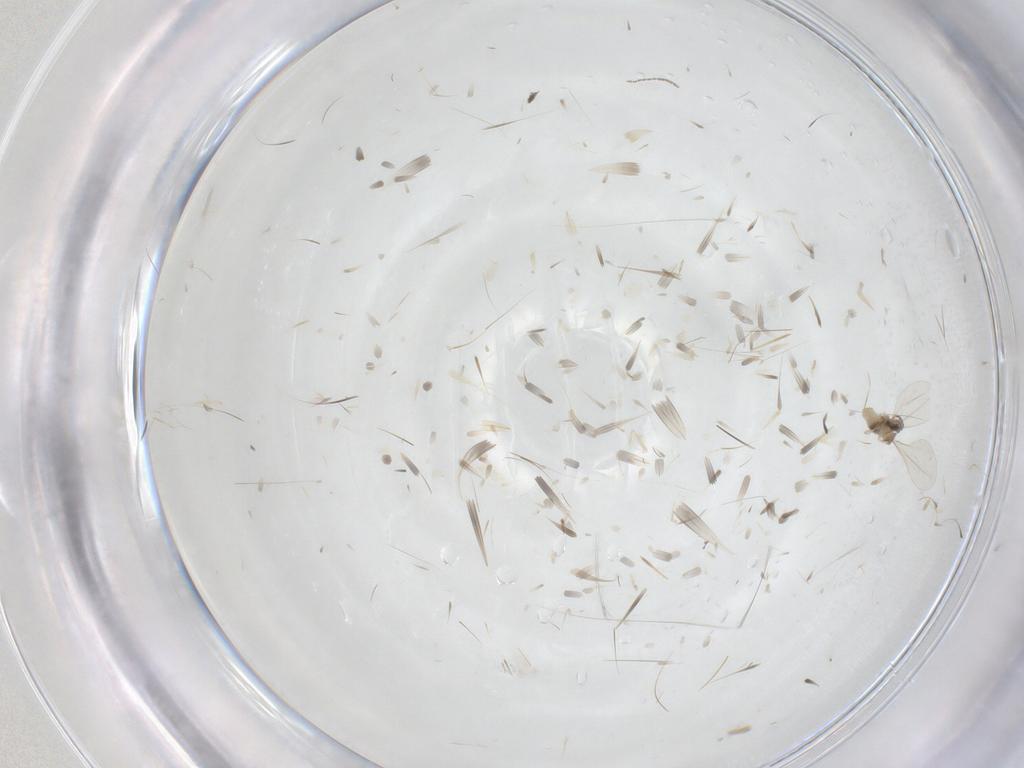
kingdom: Animalia
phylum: Arthropoda
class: Insecta
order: Diptera
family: Cecidomyiidae
